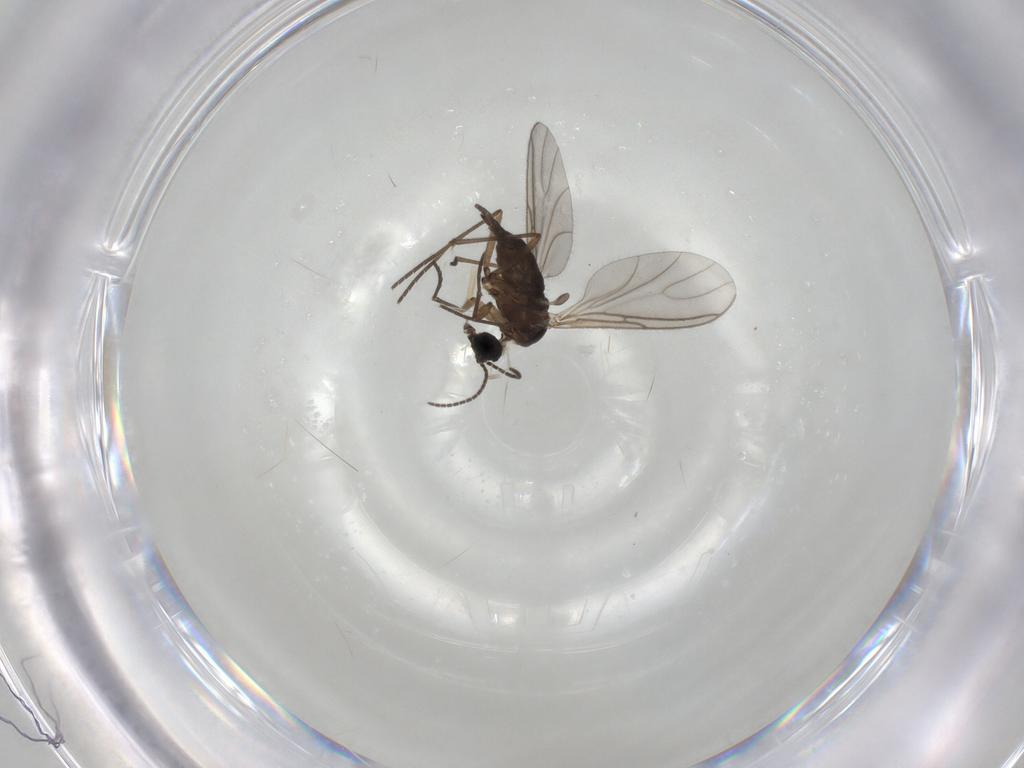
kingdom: Animalia
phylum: Arthropoda
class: Insecta
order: Diptera
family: Sciaridae
